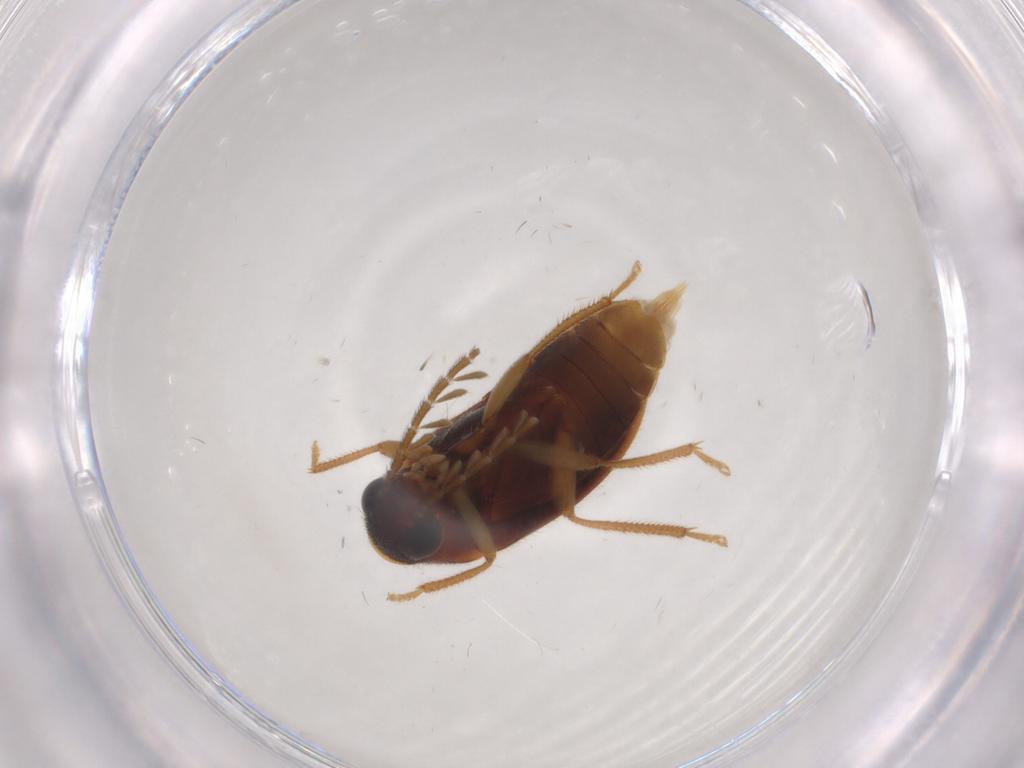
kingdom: Animalia
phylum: Arthropoda
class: Insecta
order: Coleoptera
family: Ptilodactylidae
